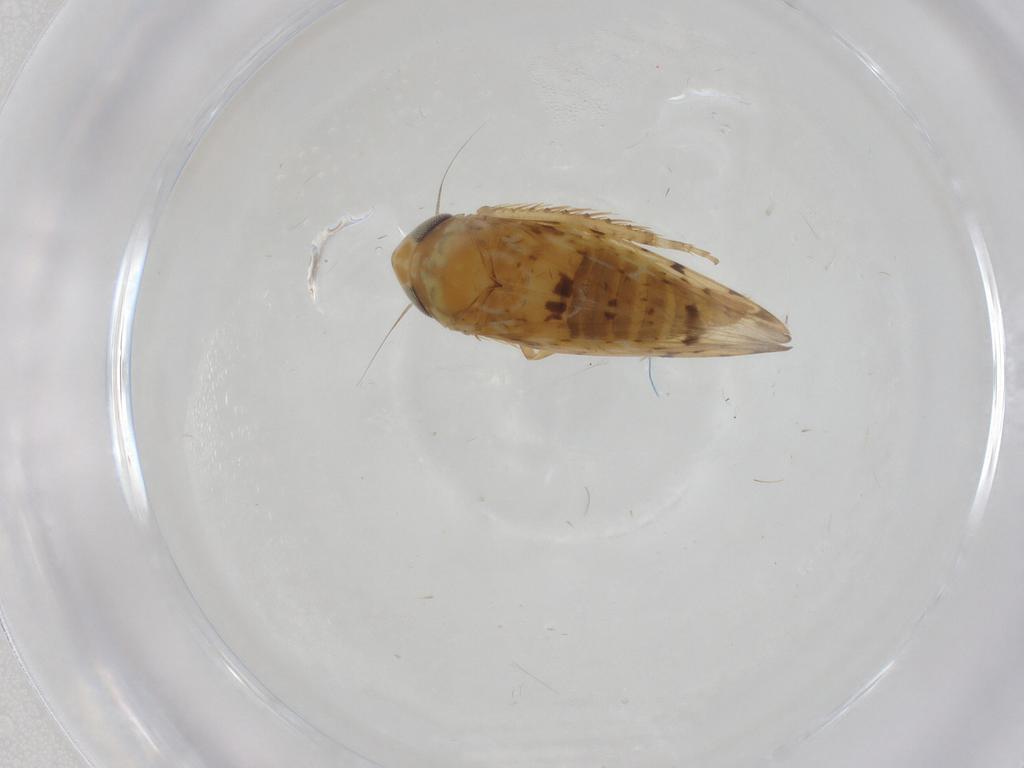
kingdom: Animalia
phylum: Arthropoda
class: Insecta
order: Hemiptera
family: Cicadellidae
